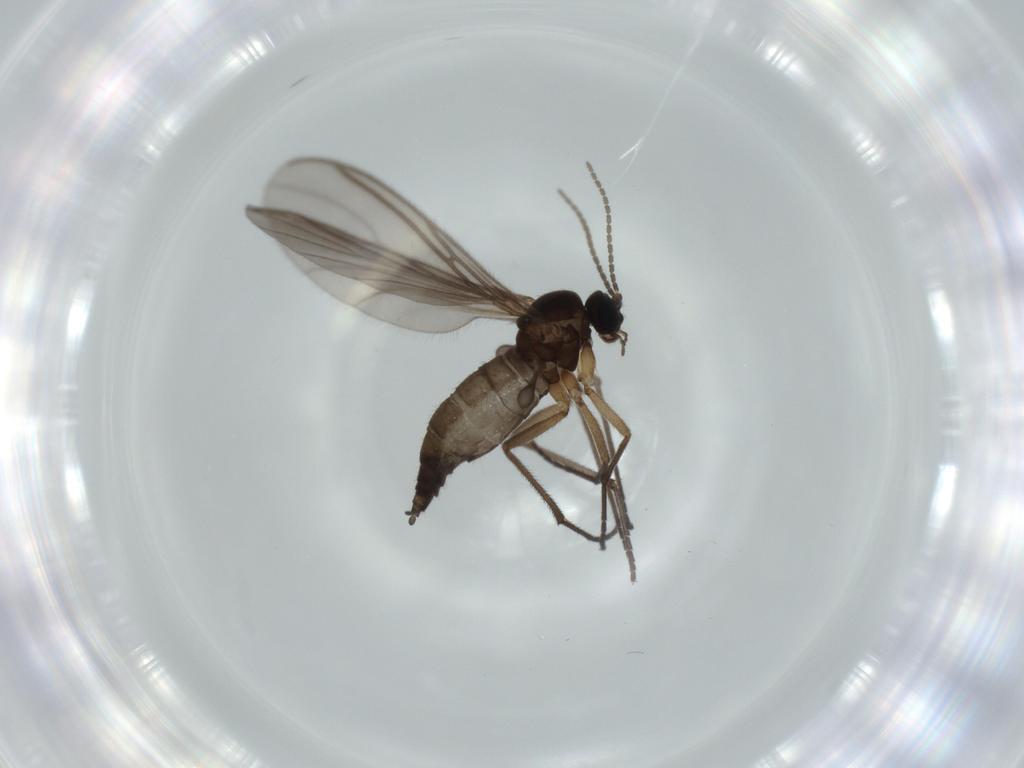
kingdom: Animalia
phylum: Arthropoda
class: Insecta
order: Diptera
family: Sciaridae
